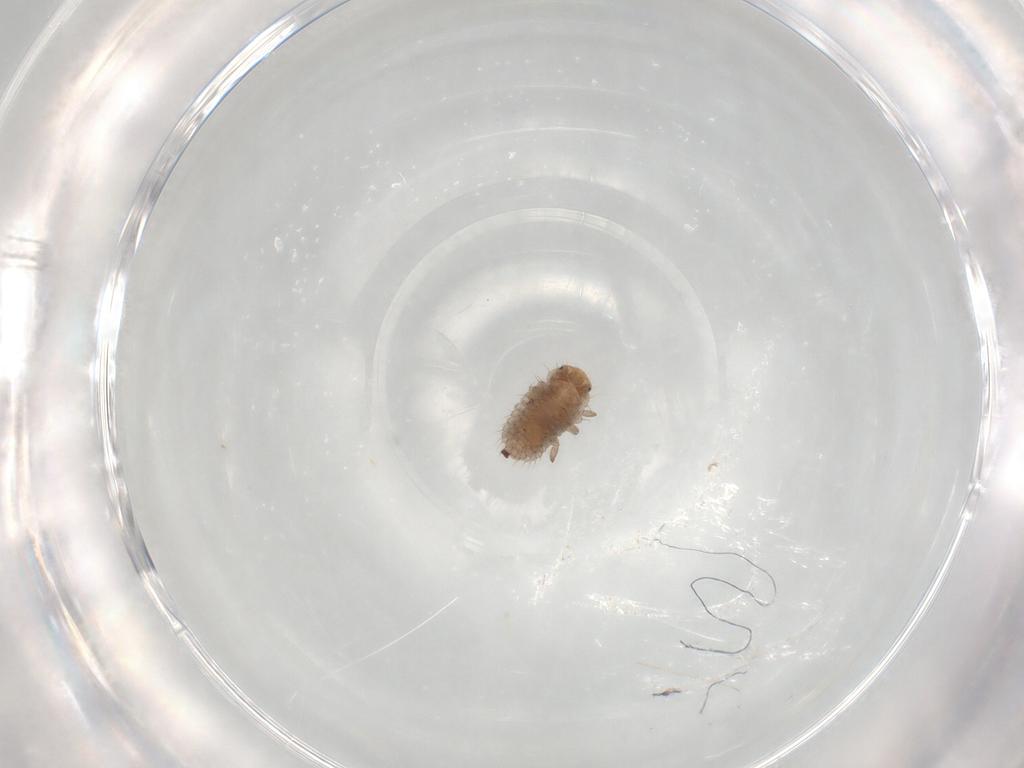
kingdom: Animalia
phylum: Arthropoda
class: Insecta
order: Coleoptera
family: Coccinellidae
